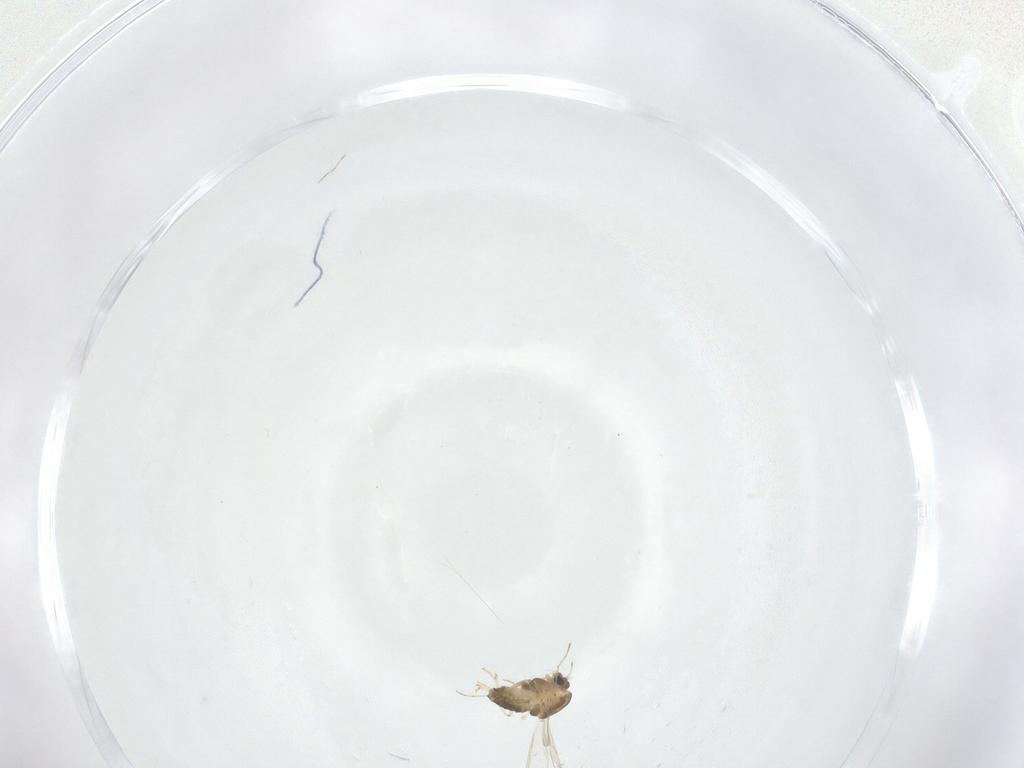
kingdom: Animalia
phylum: Arthropoda
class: Insecta
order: Diptera
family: Chironomidae
